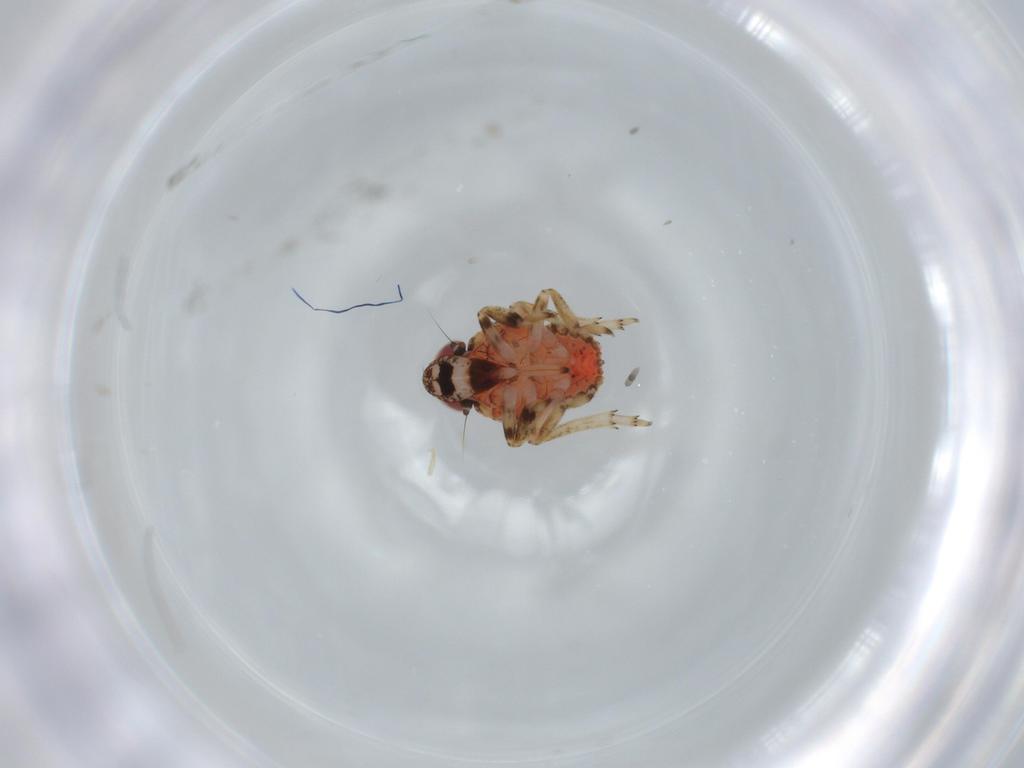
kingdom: Animalia
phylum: Arthropoda
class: Insecta
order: Hemiptera
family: Issidae
